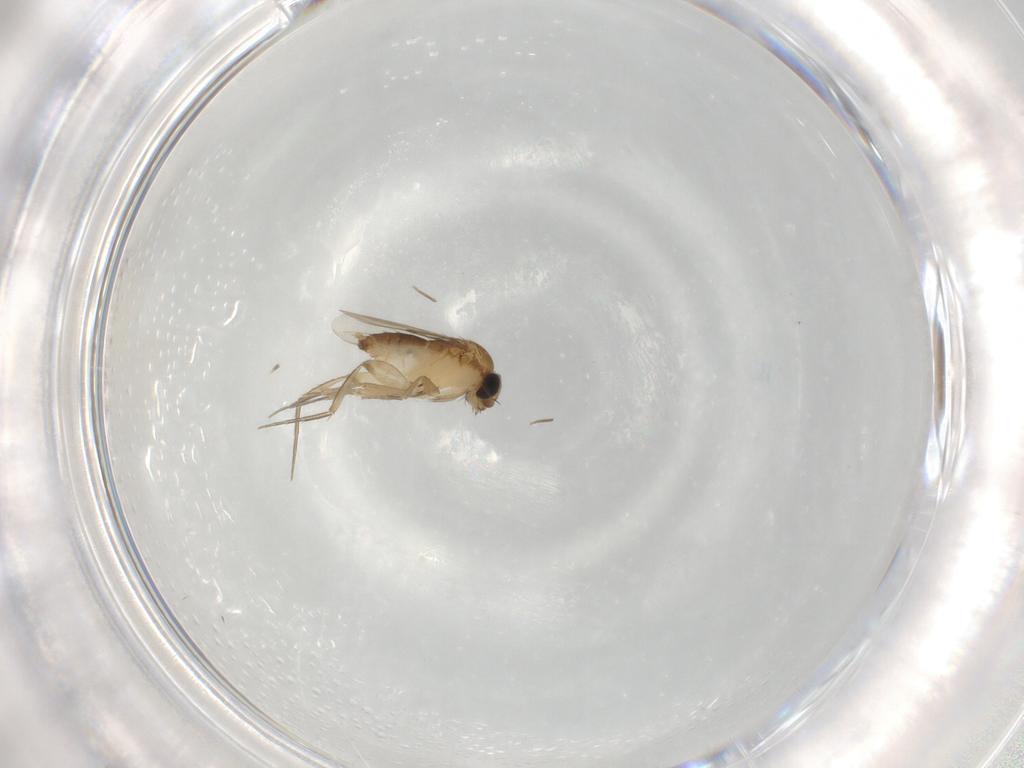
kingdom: Animalia
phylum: Arthropoda
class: Insecta
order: Diptera
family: Phoridae
